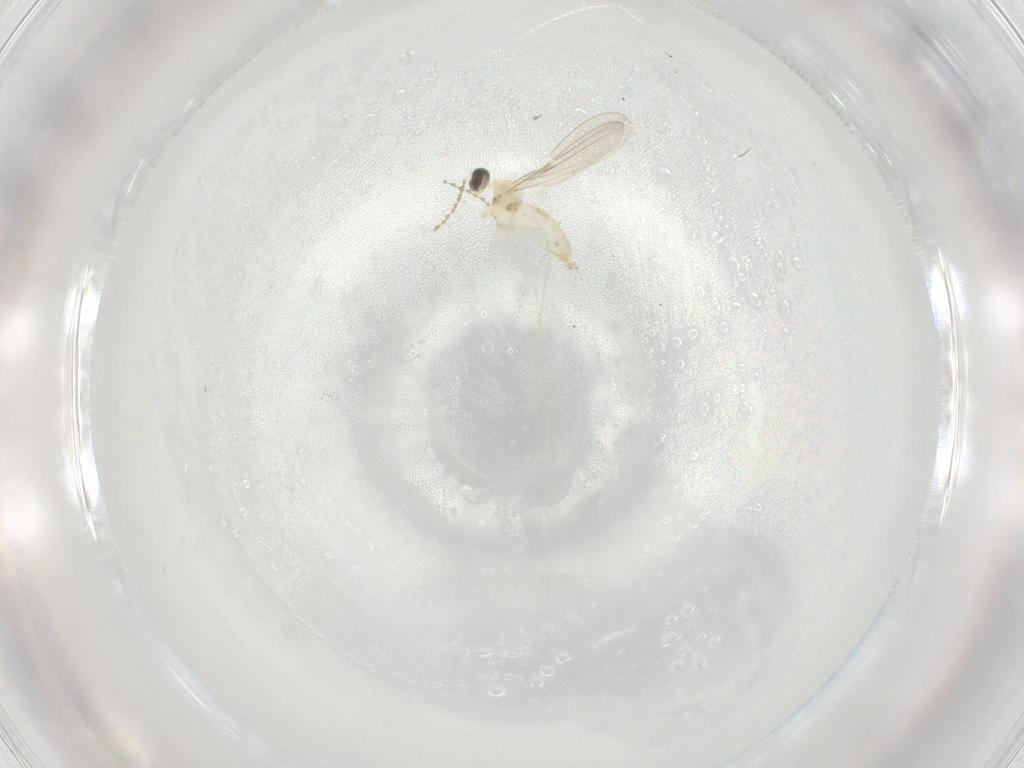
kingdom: Animalia
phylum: Arthropoda
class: Insecta
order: Diptera
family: Cecidomyiidae
